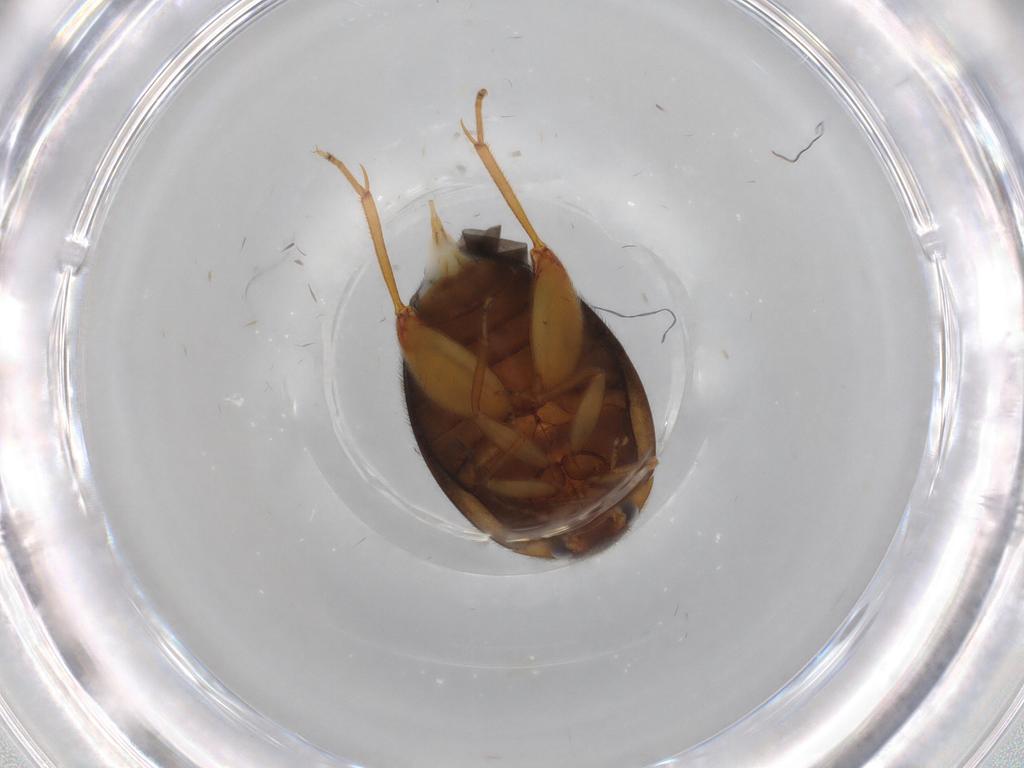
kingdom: Animalia
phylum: Arthropoda
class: Insecta
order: Coleoptera
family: Scirtidae
